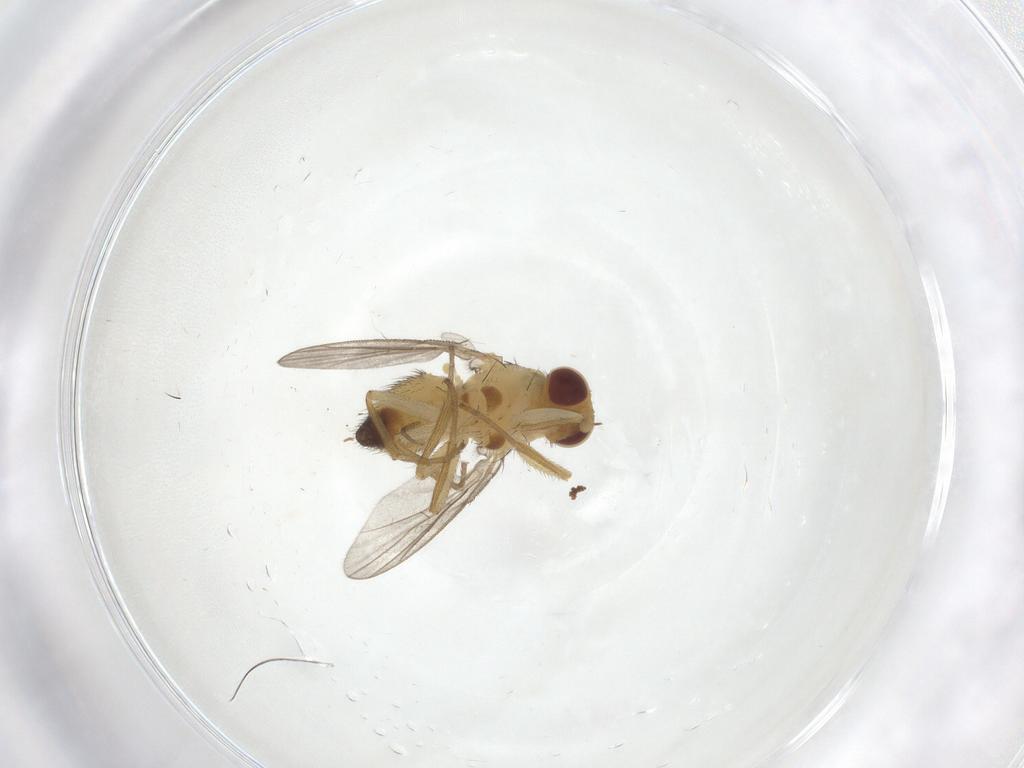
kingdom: Animalia
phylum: Arthropoda
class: Insecta
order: Diptera
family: Agromyzidae
